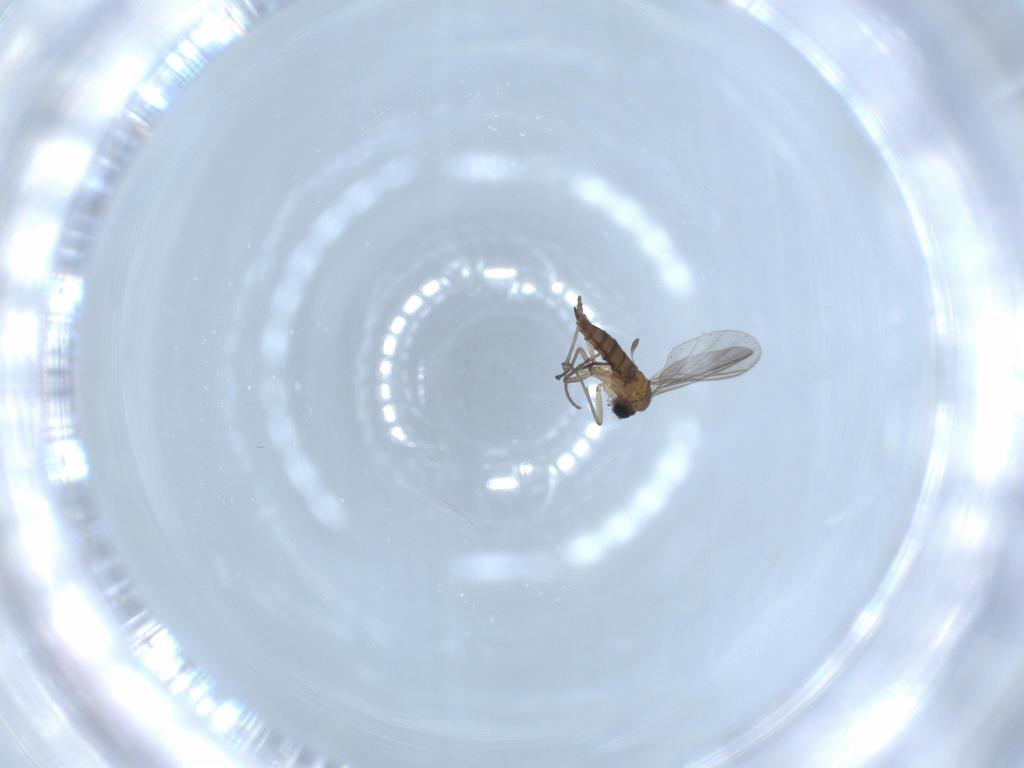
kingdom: Animalia
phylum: Arthropoda
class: Insecta
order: Diptera
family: Sciaridae
